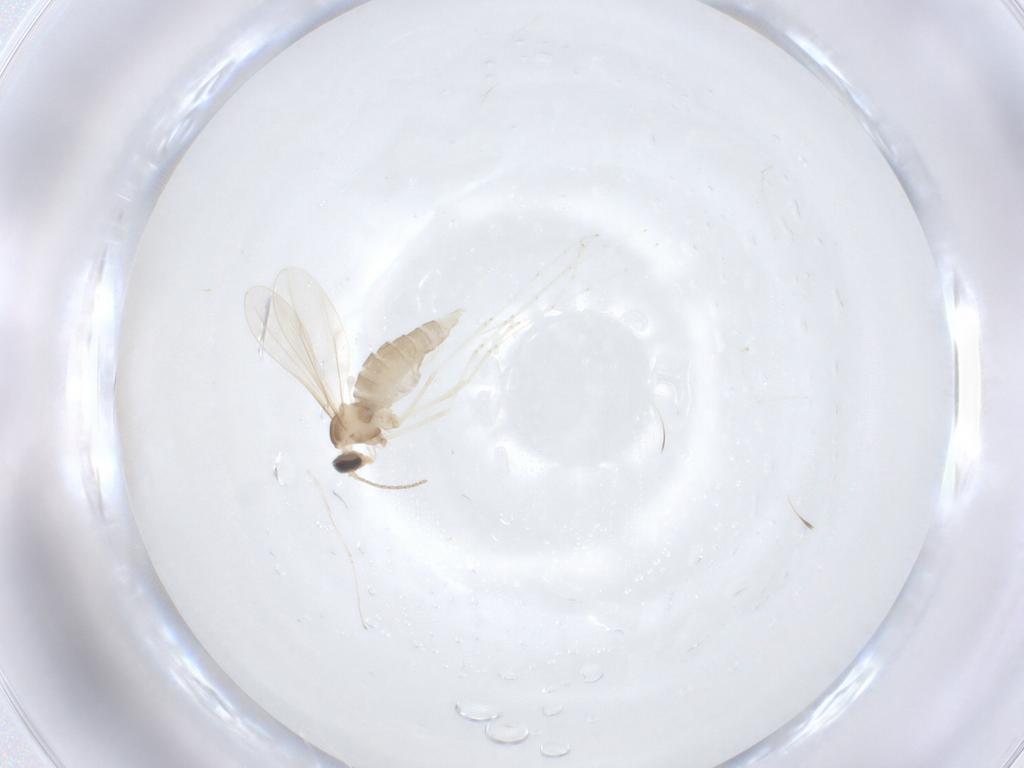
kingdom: Animalia
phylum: Arthropoda
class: Insecta
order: Diptera
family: Cecidomyiidae
